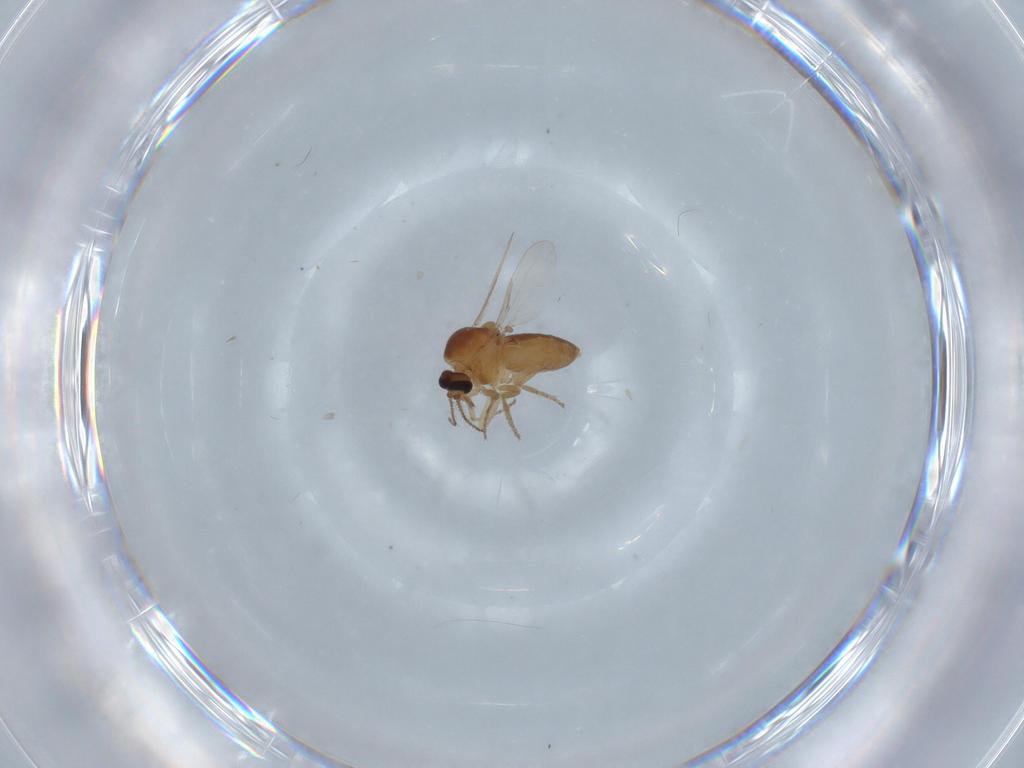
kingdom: Animalia
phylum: Arthropoda
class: Insecta
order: Diptera
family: Ceratopogonidae
